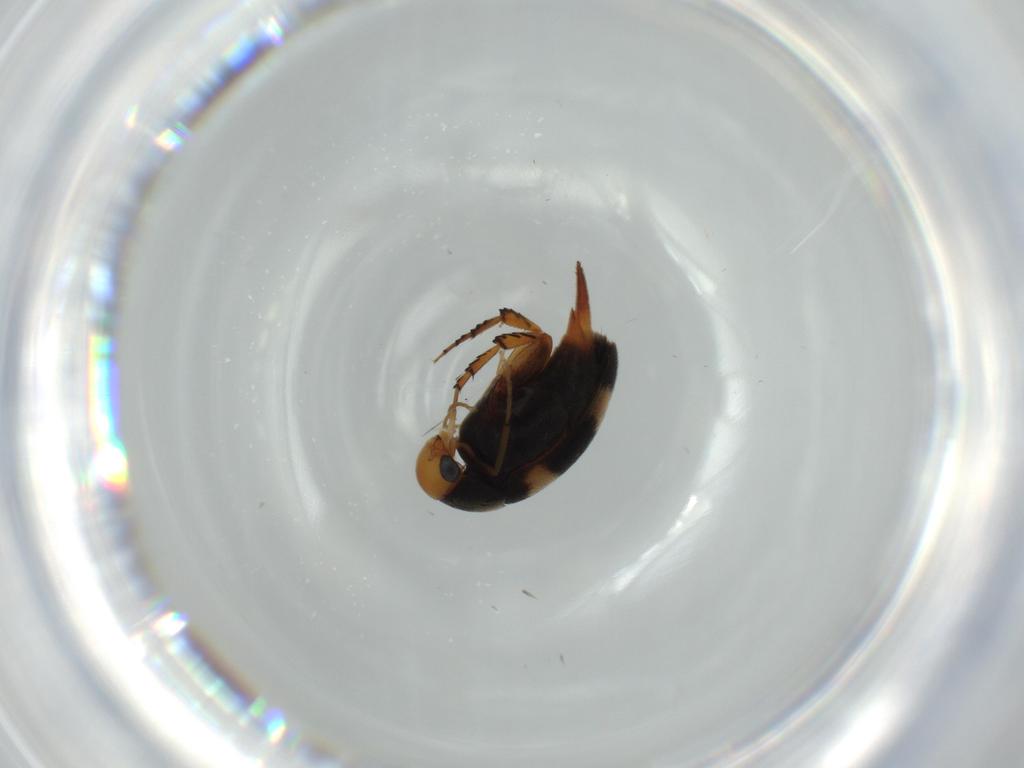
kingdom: Animalia
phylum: Arthropoda
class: Insecta
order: Coleoptera
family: Mordellidae
